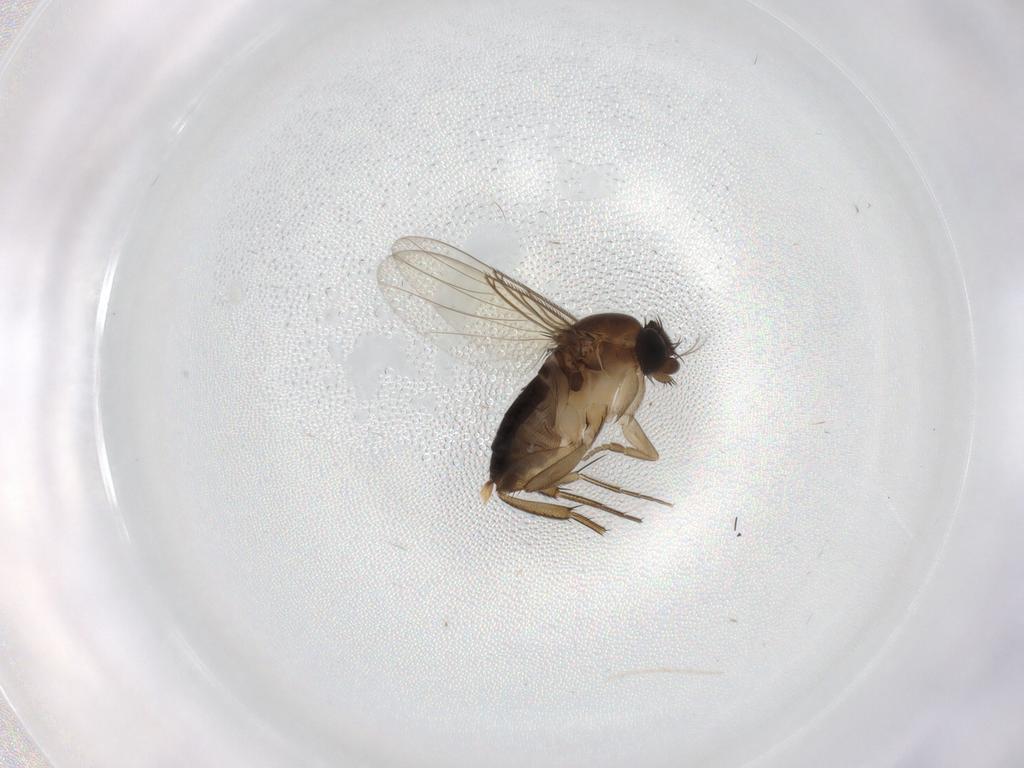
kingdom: Animalia
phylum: Arthropoda
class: Insecta
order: Diptera
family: Phoridae
